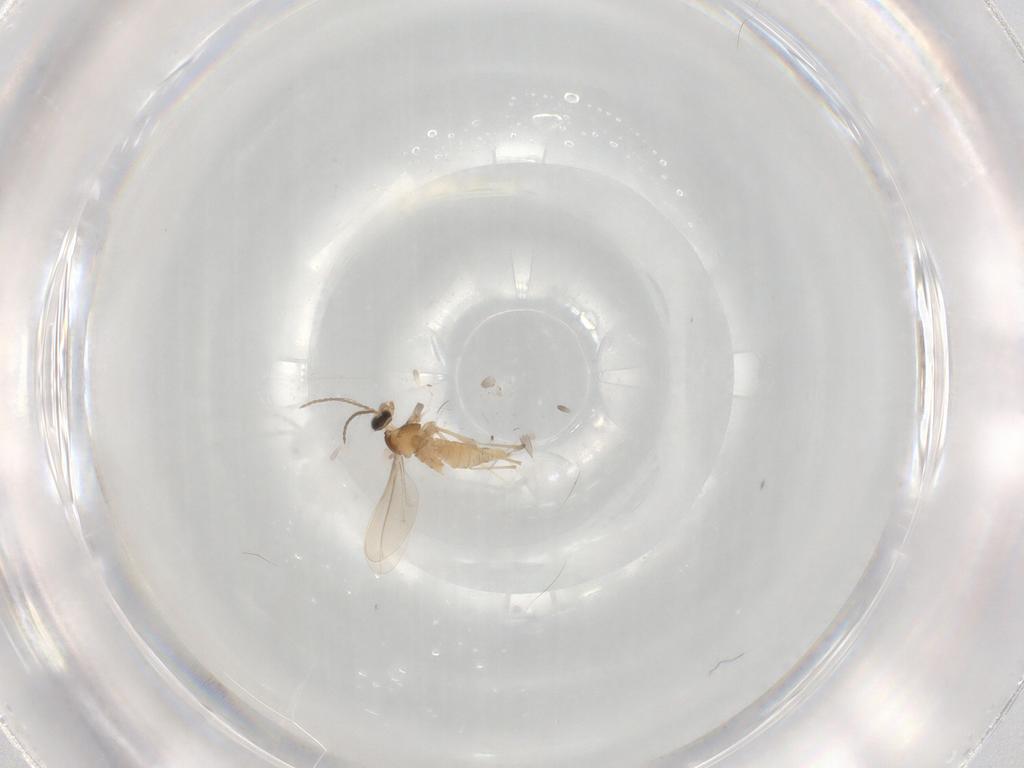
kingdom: Animalia
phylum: Arthropoda
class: Insecta
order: Diptera
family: Cecidomyiidae
